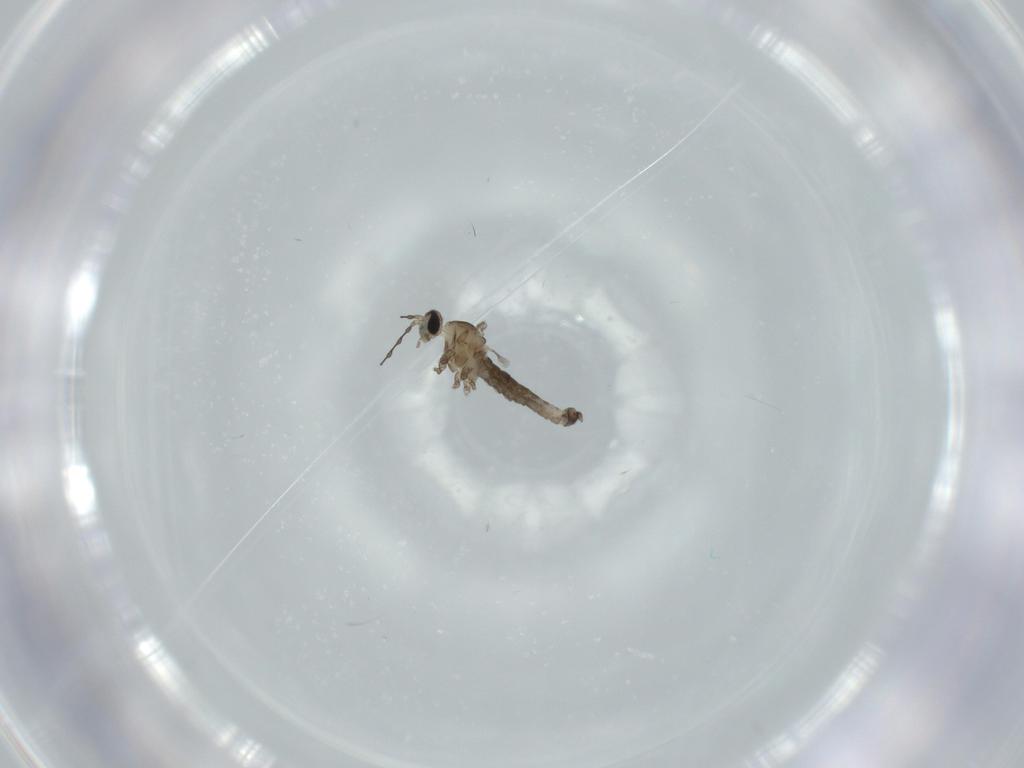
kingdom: Animalia
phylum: Arthropoda
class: Insecta
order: Diptera
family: Cecidomyiidae
